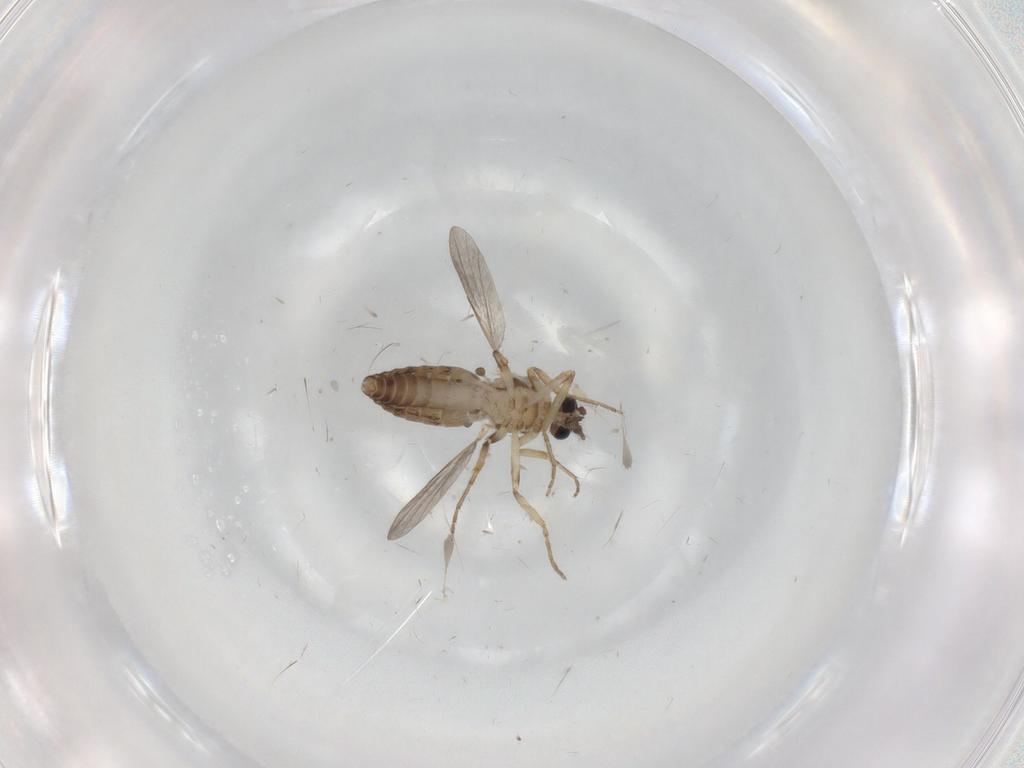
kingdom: Animalia
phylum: Arthropoda
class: Insecta
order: Diptera
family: Ceratopogonidae
